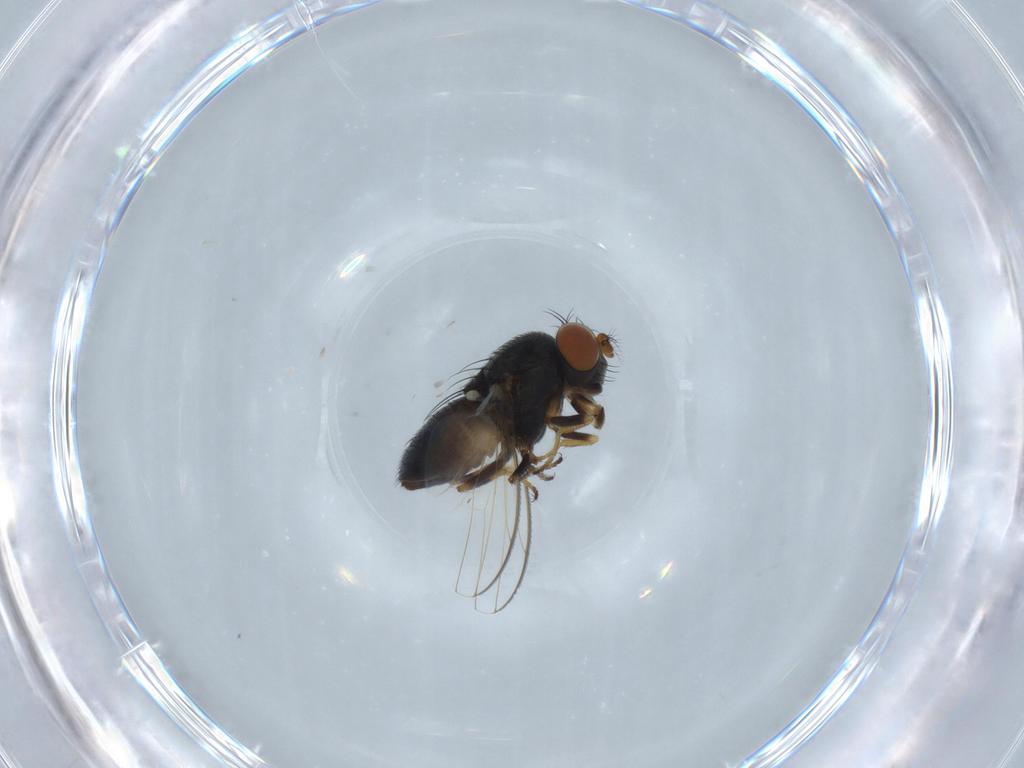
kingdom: Animalia
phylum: Arthropoda
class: Insecta
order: Diptera
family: Ephydridae
